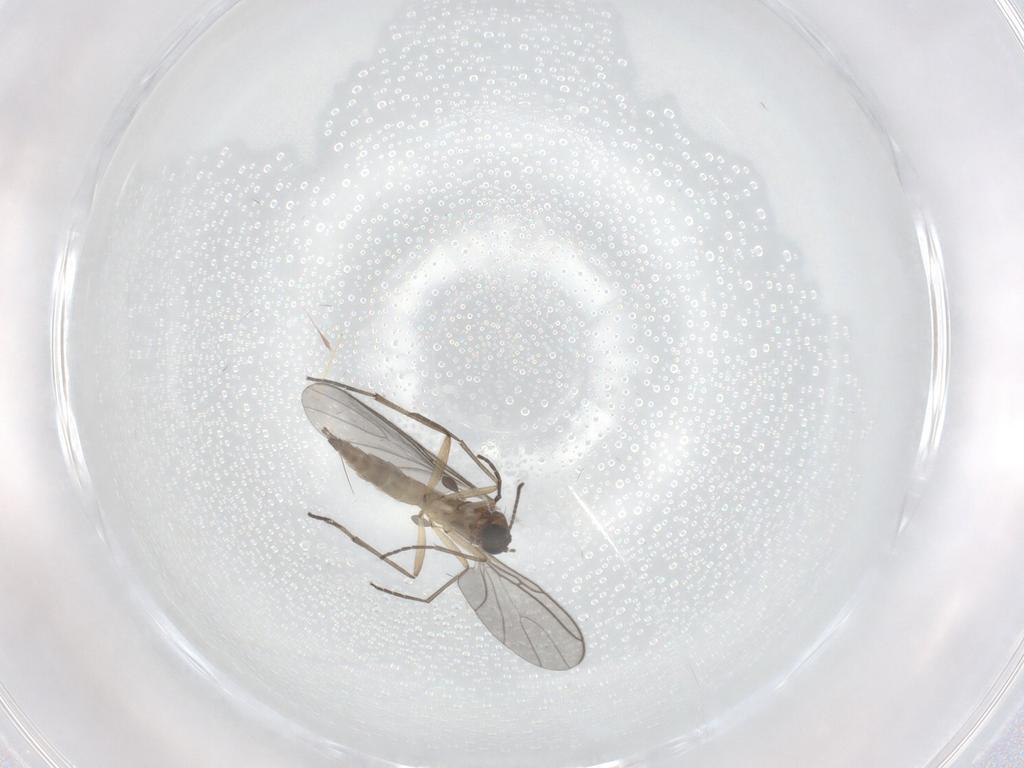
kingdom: Animalia
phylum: Arthropoda
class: Insecta
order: Diptera
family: Sciaridae
